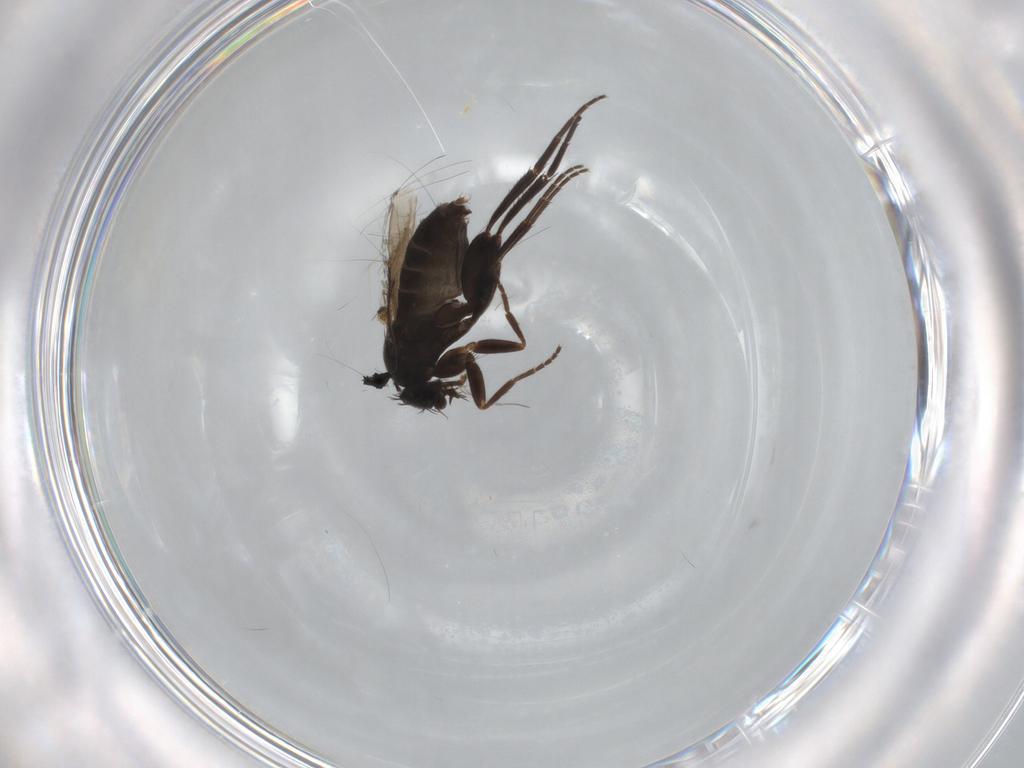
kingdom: Animalia
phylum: Arthropoda
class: Insecta
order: Diptera
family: Anthomyiidae
